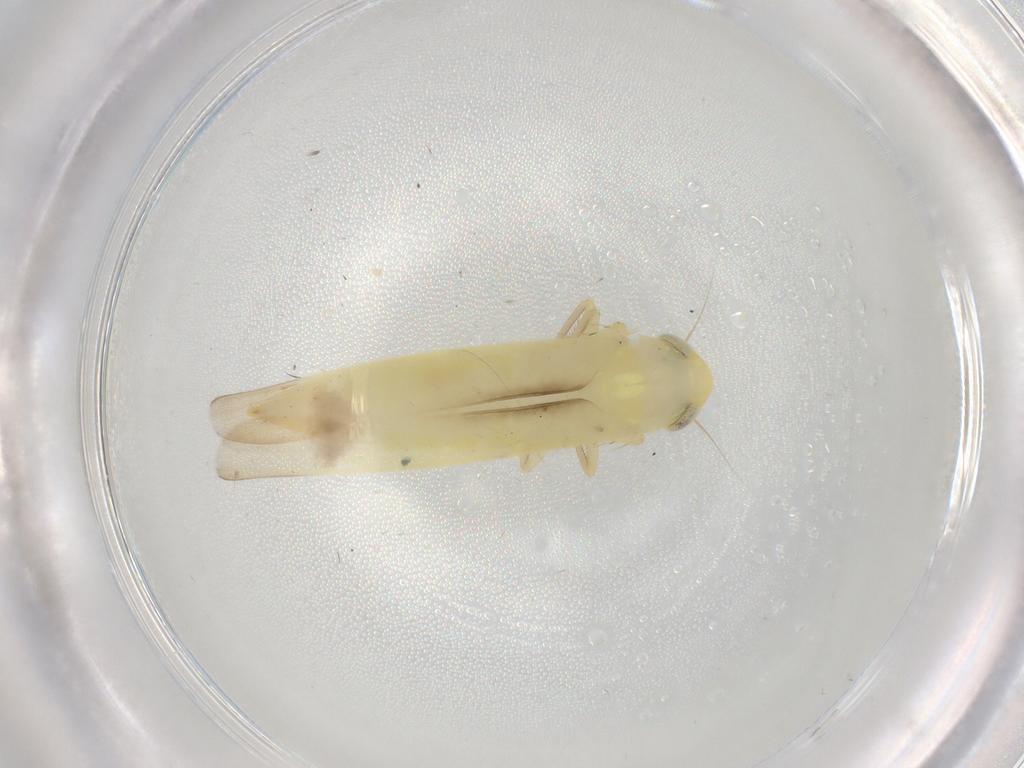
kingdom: Animalia
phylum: Arthropoda
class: Insecta
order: Hemiptera
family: Cicadellidae
